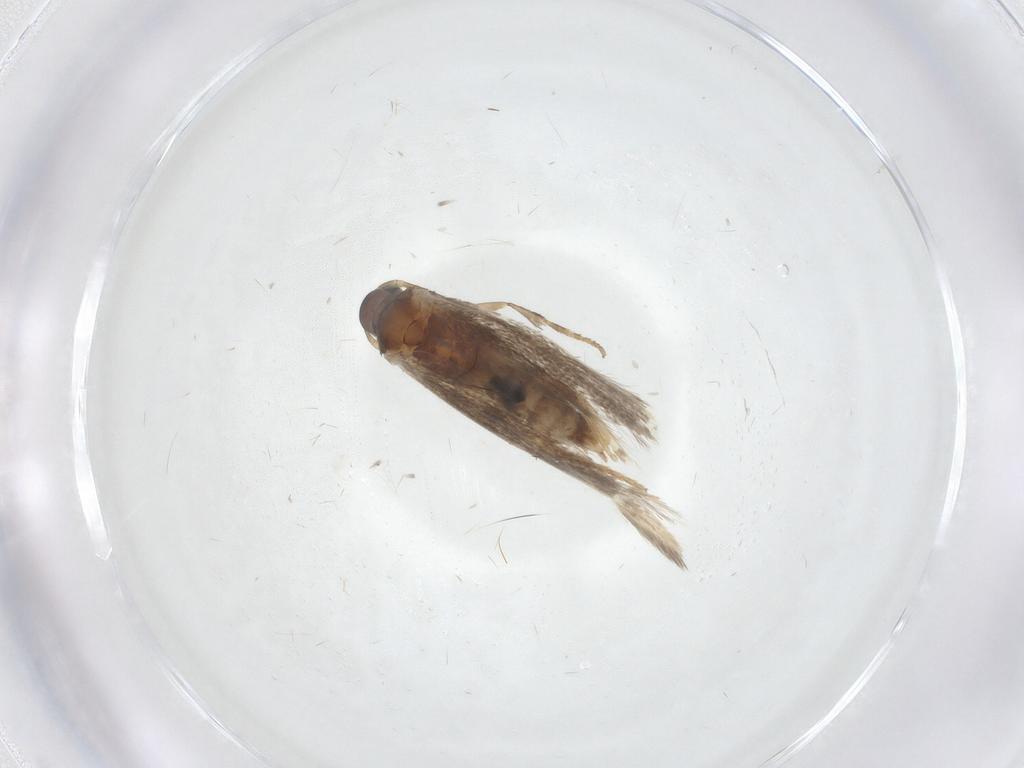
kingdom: Animalia
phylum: Arthropoda
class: Insecta
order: Lepidoptera
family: Elachistidae
